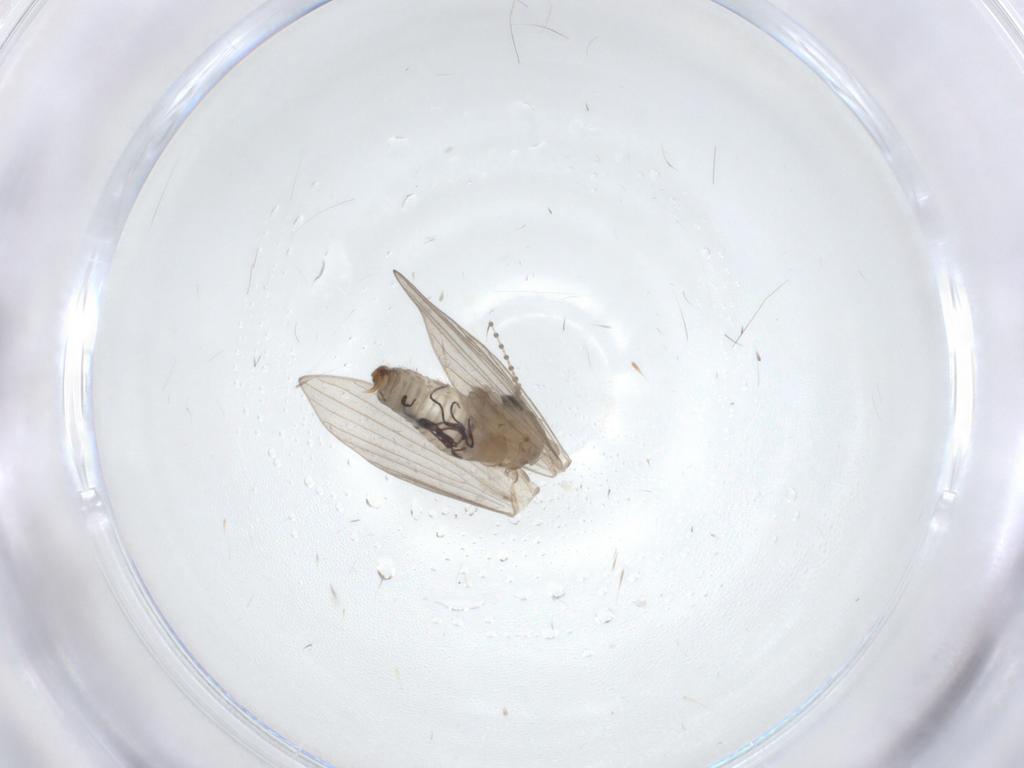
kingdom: Animalia
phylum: Arthropoda
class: Insecta
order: Diptera
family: Psychodidae
